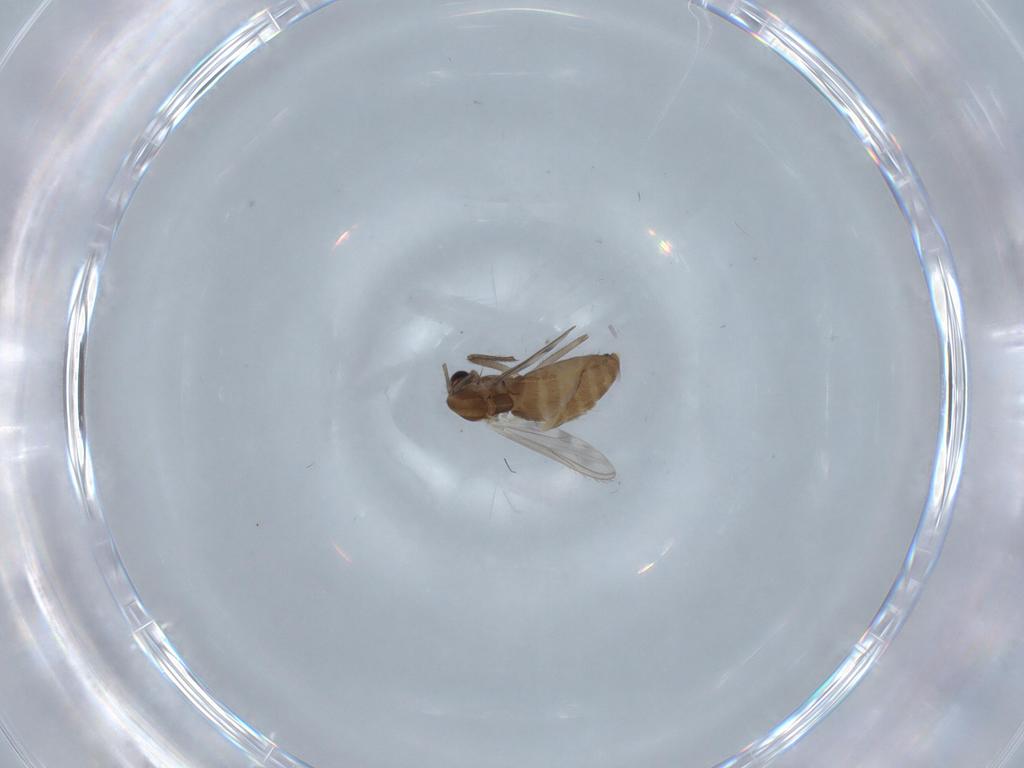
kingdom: Animalia
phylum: Arthropoda
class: Insecta
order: Diptera
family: Chironomidae
